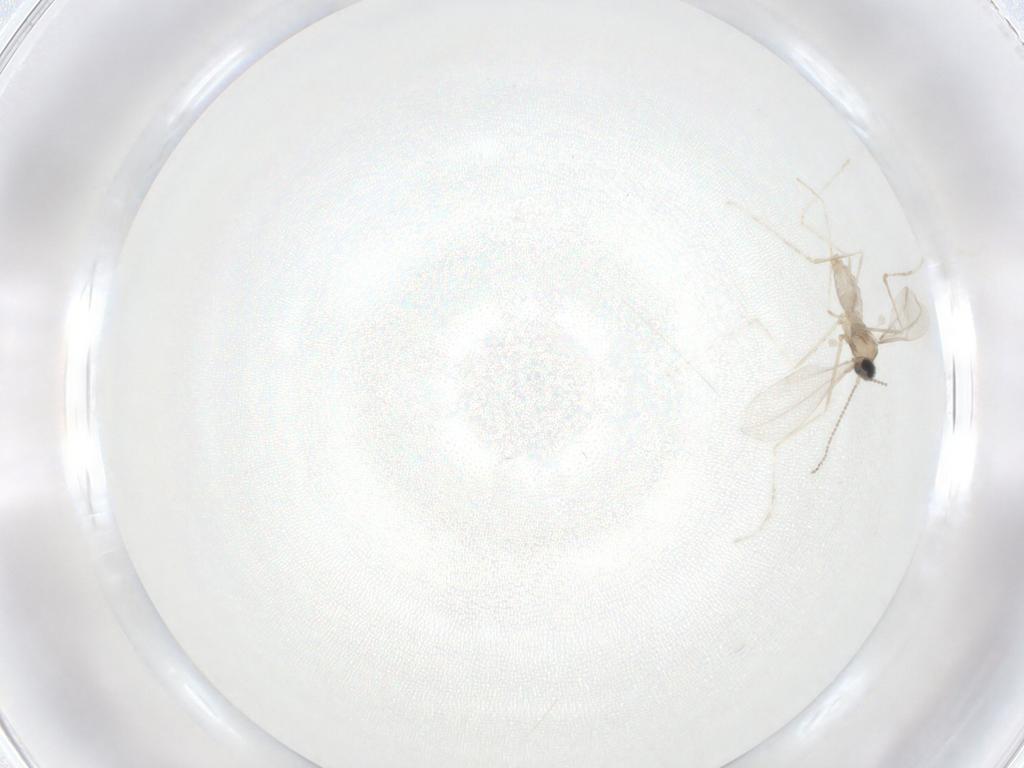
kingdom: Animalia
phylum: Arthropoda
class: Insecta
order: Diptera
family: Cecidomyiidae
